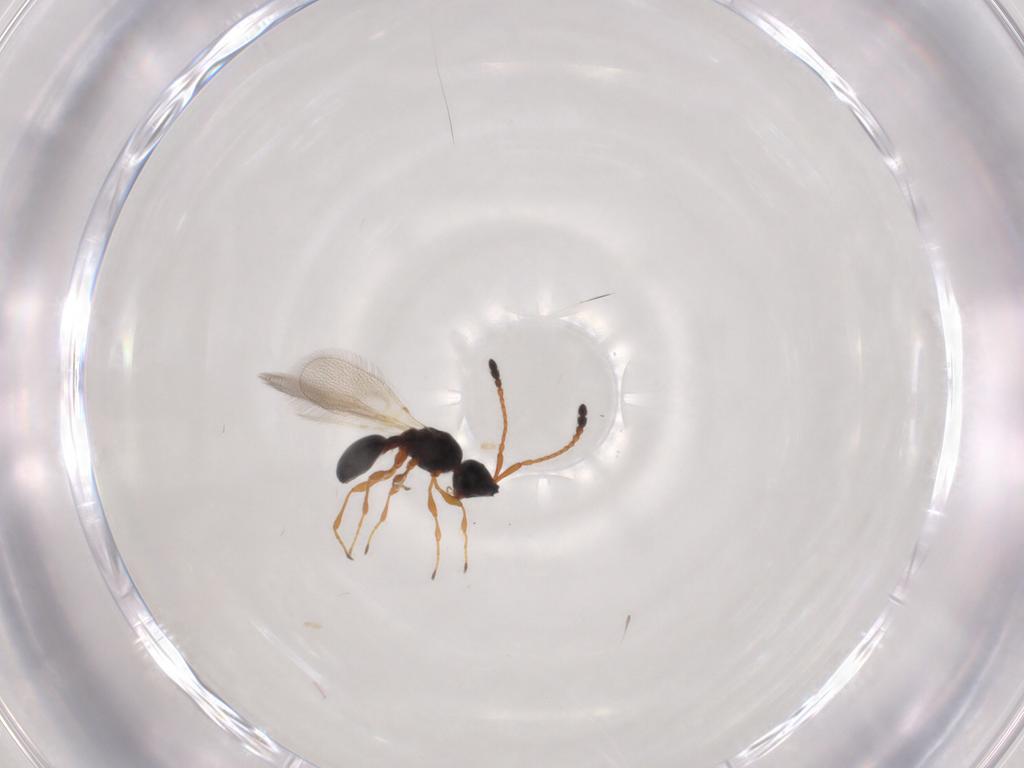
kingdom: Animalia
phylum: Arthropoda
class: Insecta
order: Hymenoptera
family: Diapriidae
